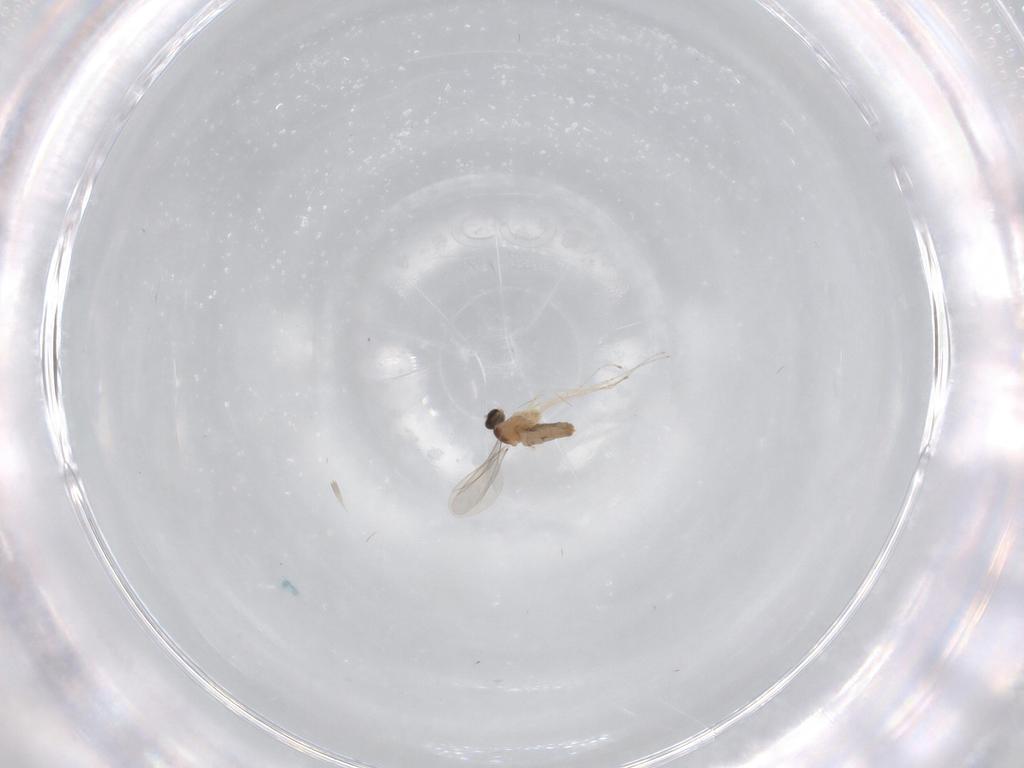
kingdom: Animalia
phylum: Arthropoda
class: Insecta
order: Diptera
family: Cecidomyiidae
